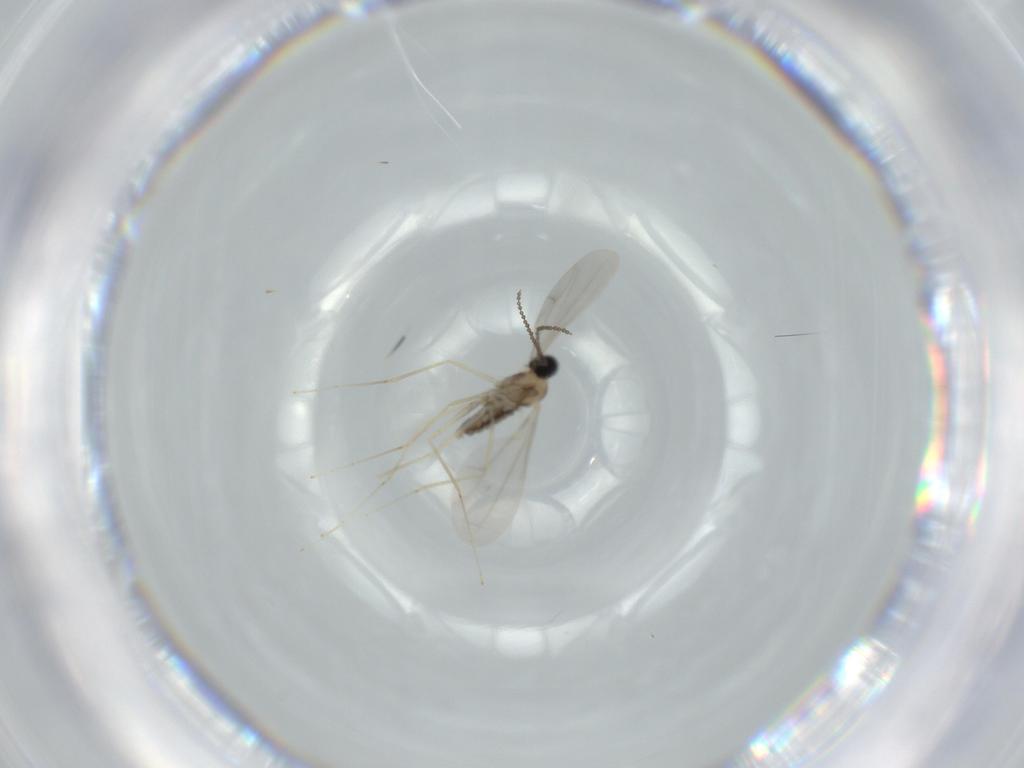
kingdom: Animalia
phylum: Arthropoda
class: Insecta
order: Diptera
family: Cecidomyiidae
